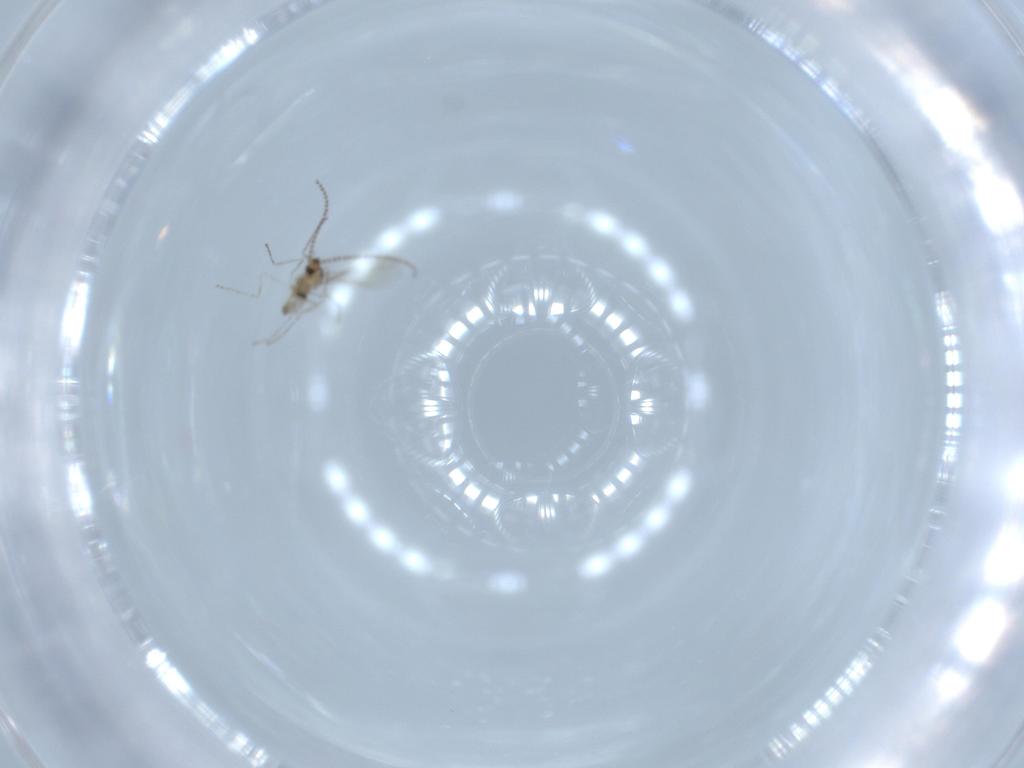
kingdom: Animalia
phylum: Arthropoda
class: Insecta
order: Diptera
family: Cecidomyiidae
